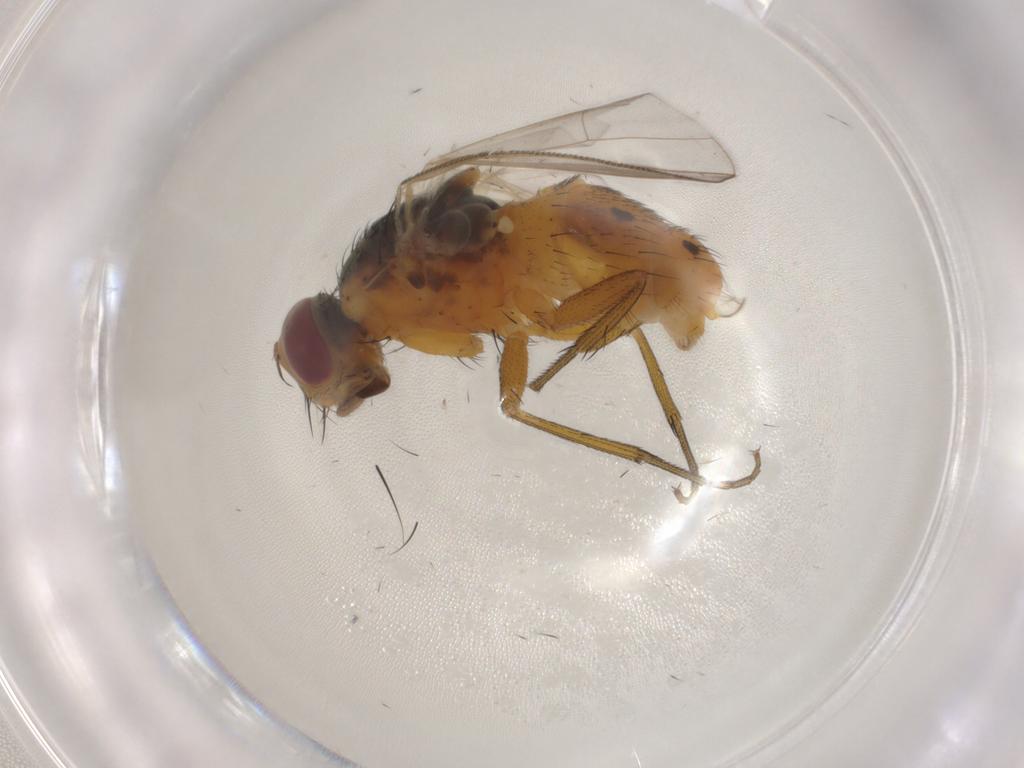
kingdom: Animalia
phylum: Arthropoda
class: Insecta
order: Diptera
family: Muscidae
